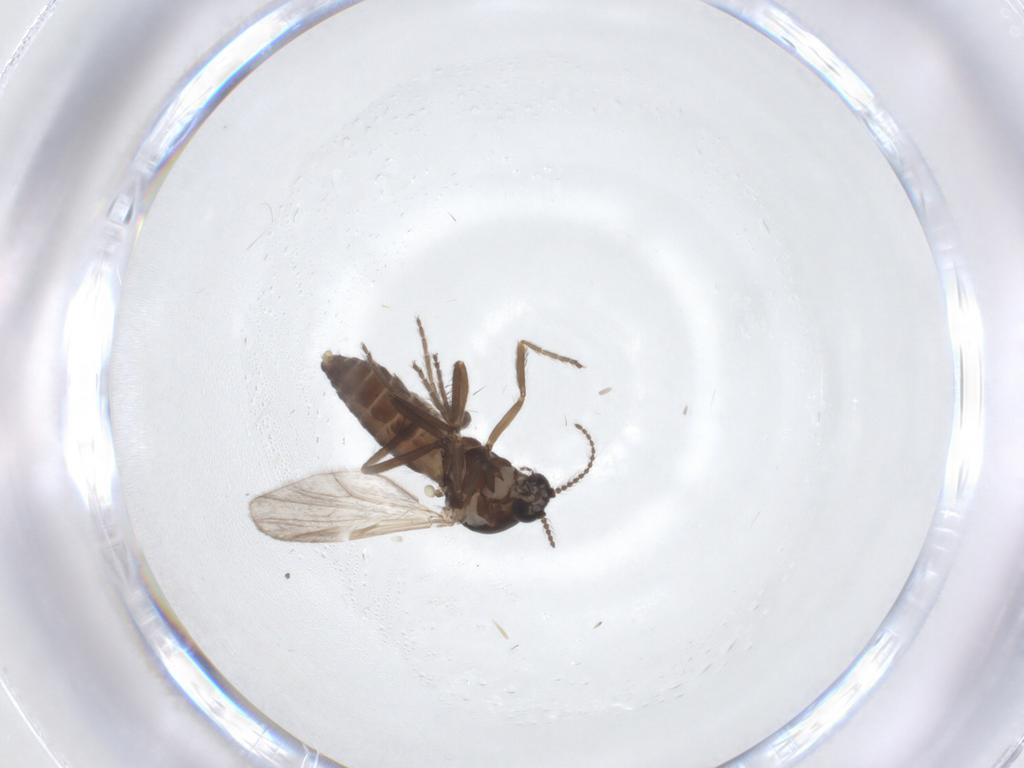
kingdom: Animalia
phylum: Arthropoda
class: Insecta
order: Diptera
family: Ceratopogonidae
